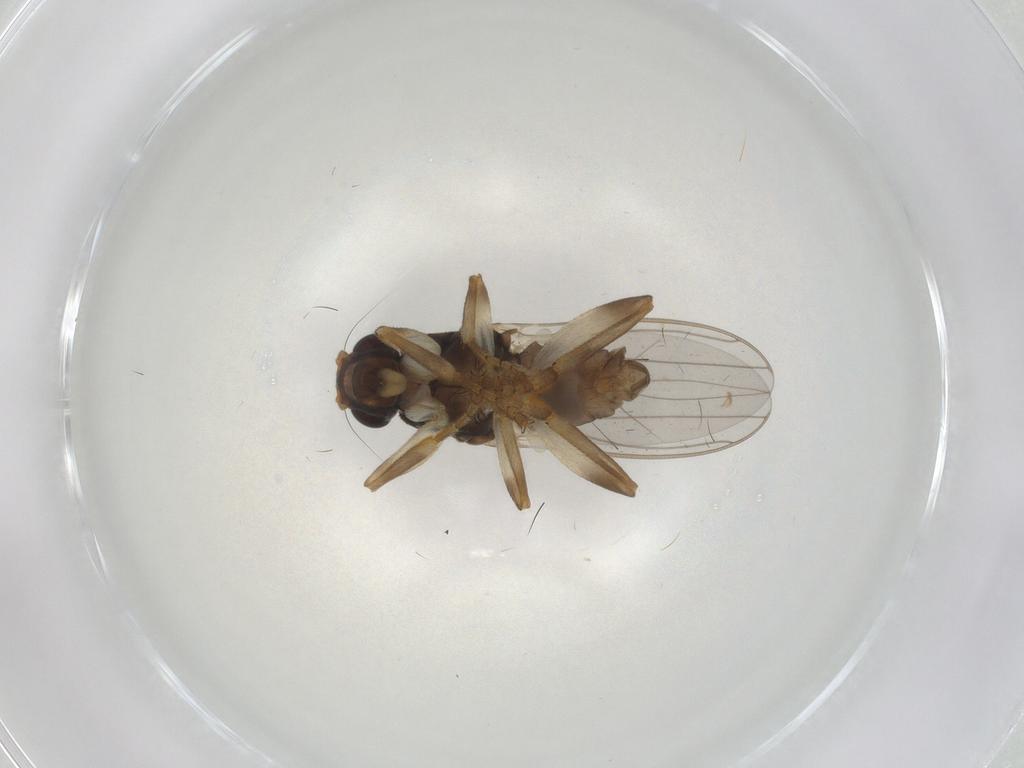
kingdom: Animalia
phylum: Arthropoda
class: Insecta
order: Diptera
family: Sphaeroceridae
